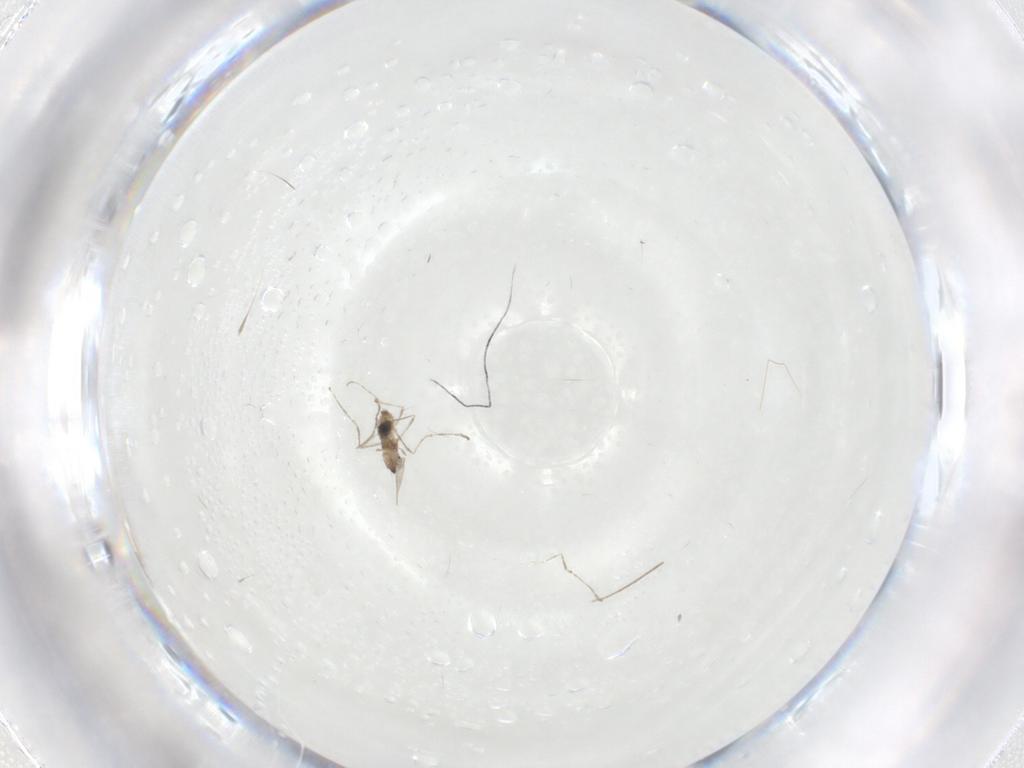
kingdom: Animalia
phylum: Arthropoda
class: Insecta
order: Diptera
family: Cecidomyiidae
